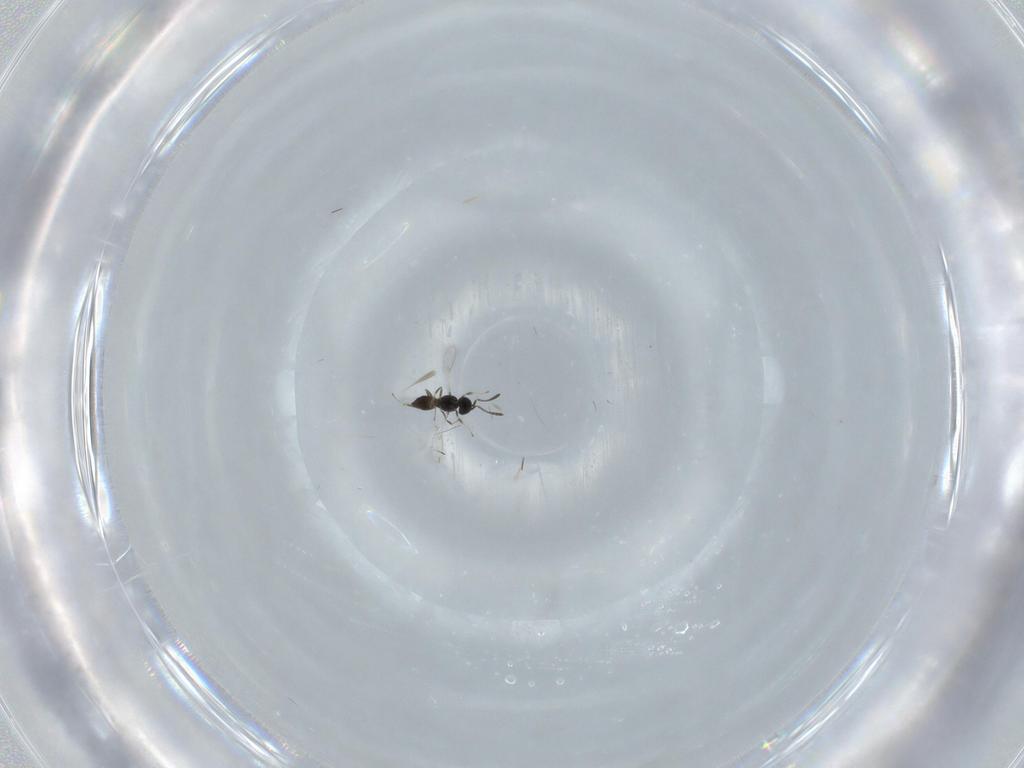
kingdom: Animalia
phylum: Arthropoda
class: Insecta
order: Hymenoptera
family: Scelionidae
